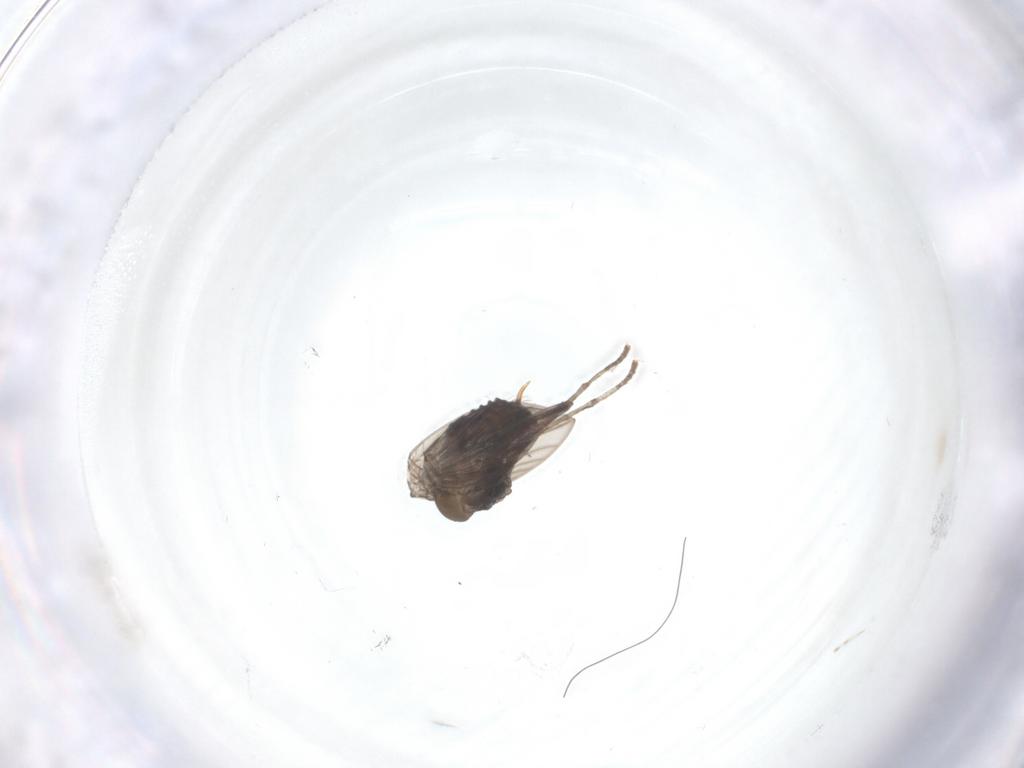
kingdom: Animalia
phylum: Arthropoda
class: Insecta
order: Diptera
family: Psychodidae
